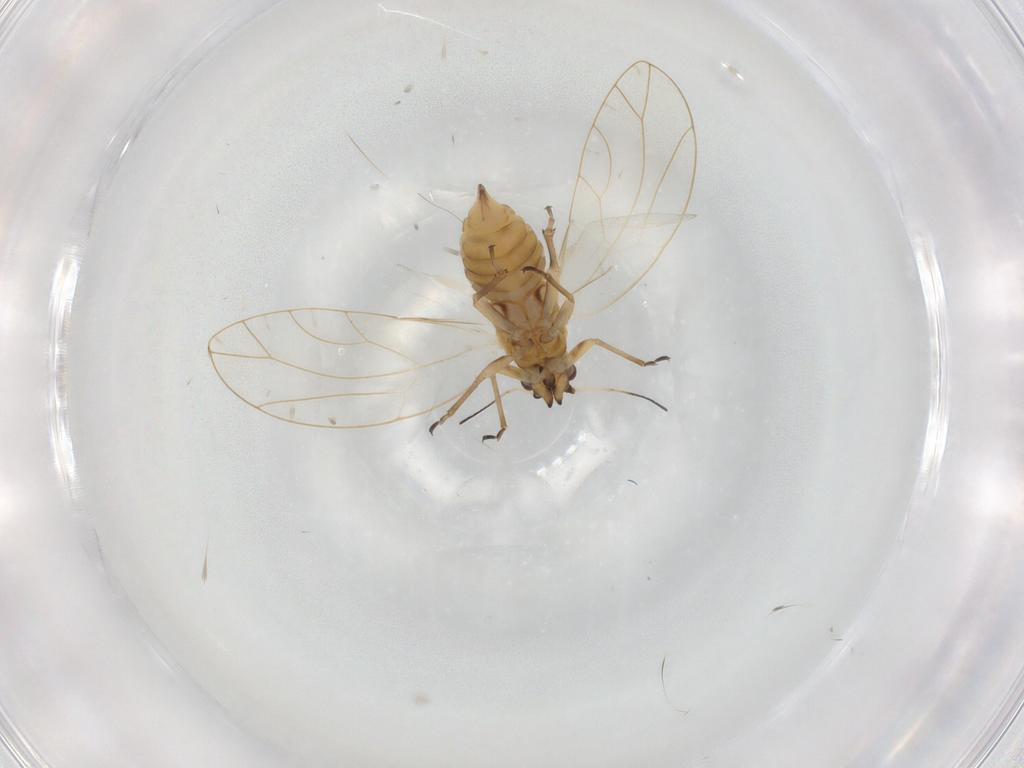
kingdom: Animalia
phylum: Arthropoda
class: Insecta
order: Hemiptera
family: Triozidae
